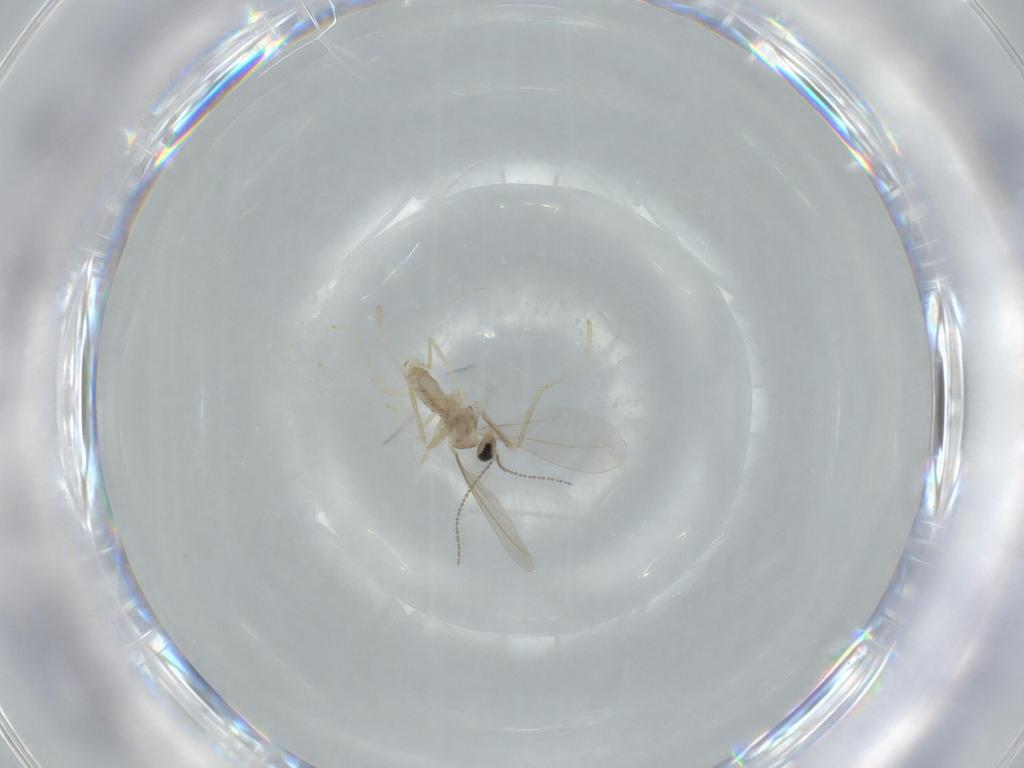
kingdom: Animalia
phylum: Arthropoda
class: Insecta
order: Diptera
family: Cecidomyiidae
